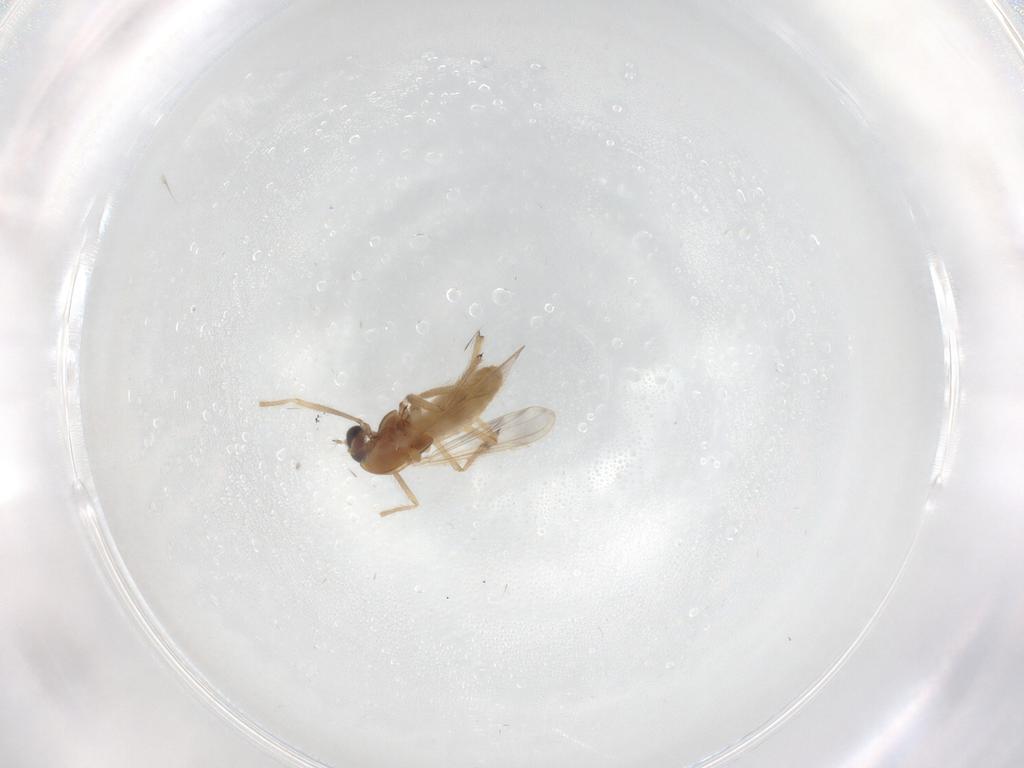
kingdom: Animalia
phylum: Arthropoda
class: Insecta
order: Diptera
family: Chironomidae
